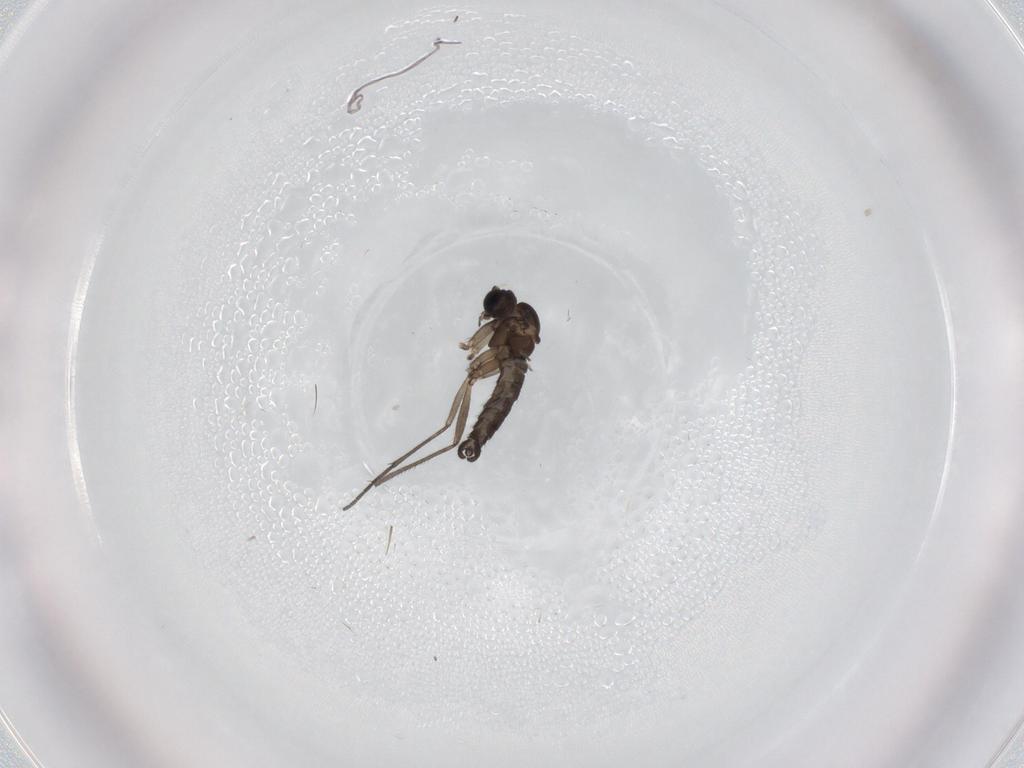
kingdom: Animalia
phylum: Arthropoda
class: Insecta
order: Diptera
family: Sciaridae
